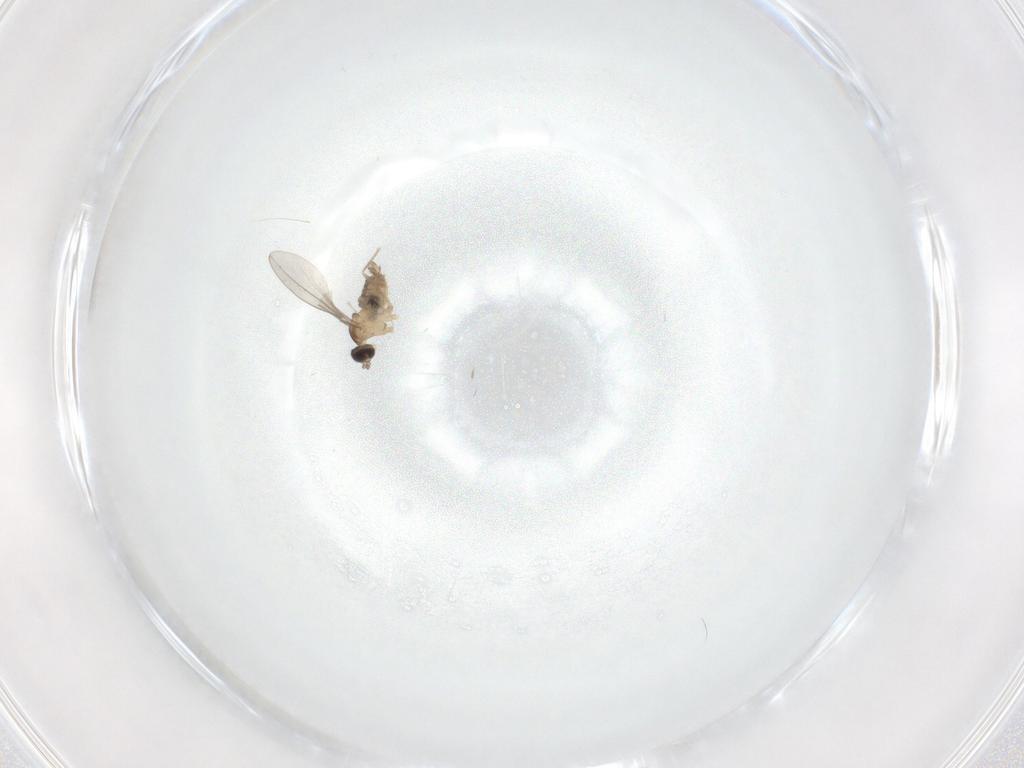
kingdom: Animalia
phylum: Arthropoda
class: Insecta
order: Diptera
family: Cecidomyiidae
